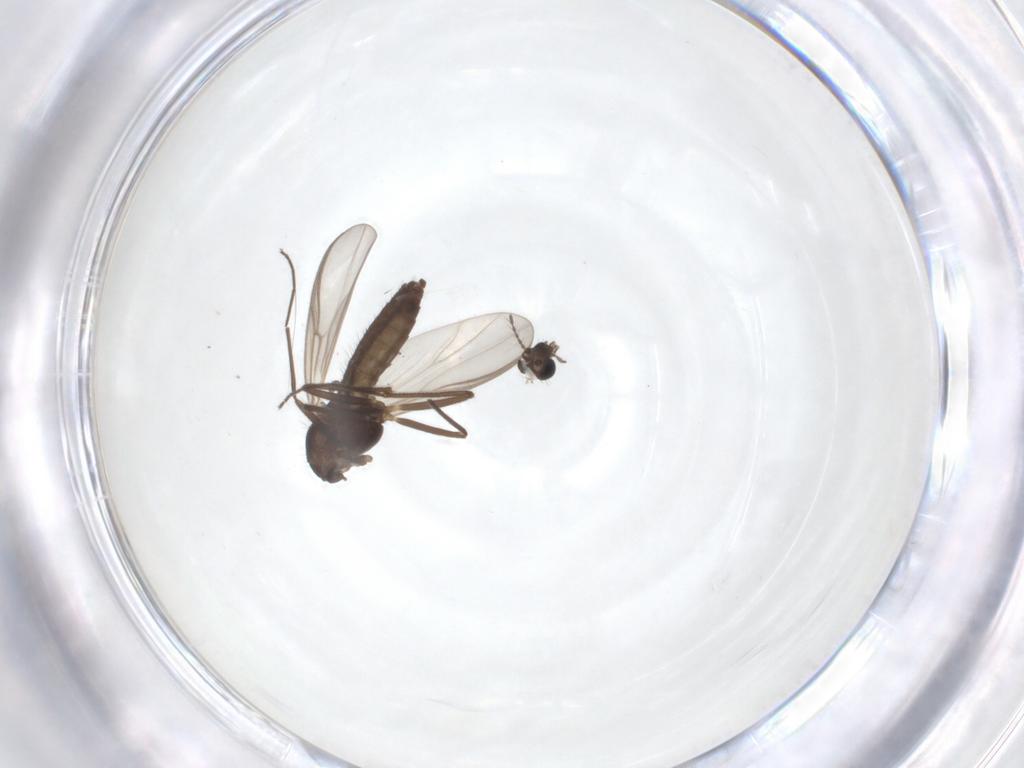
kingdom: Animalia
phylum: Arthropoda
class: Insecta
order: Diptera
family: Chironomidae
